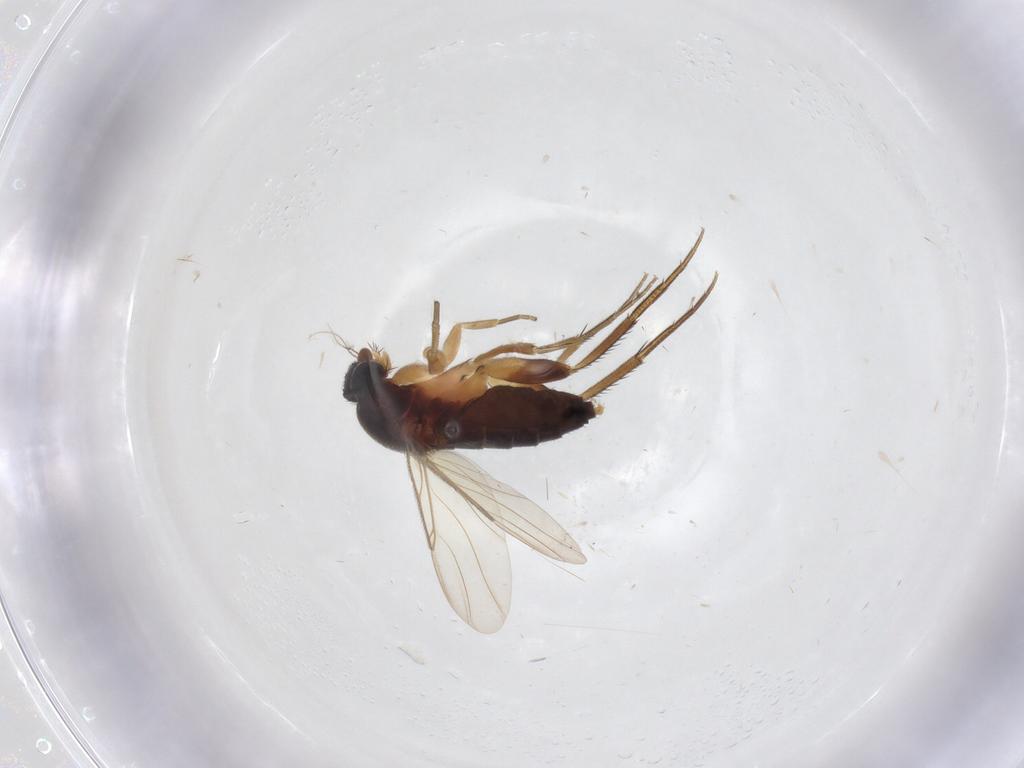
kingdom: Animalia
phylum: Arthropoda
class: Insecta
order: Diptera
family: Phoridae
